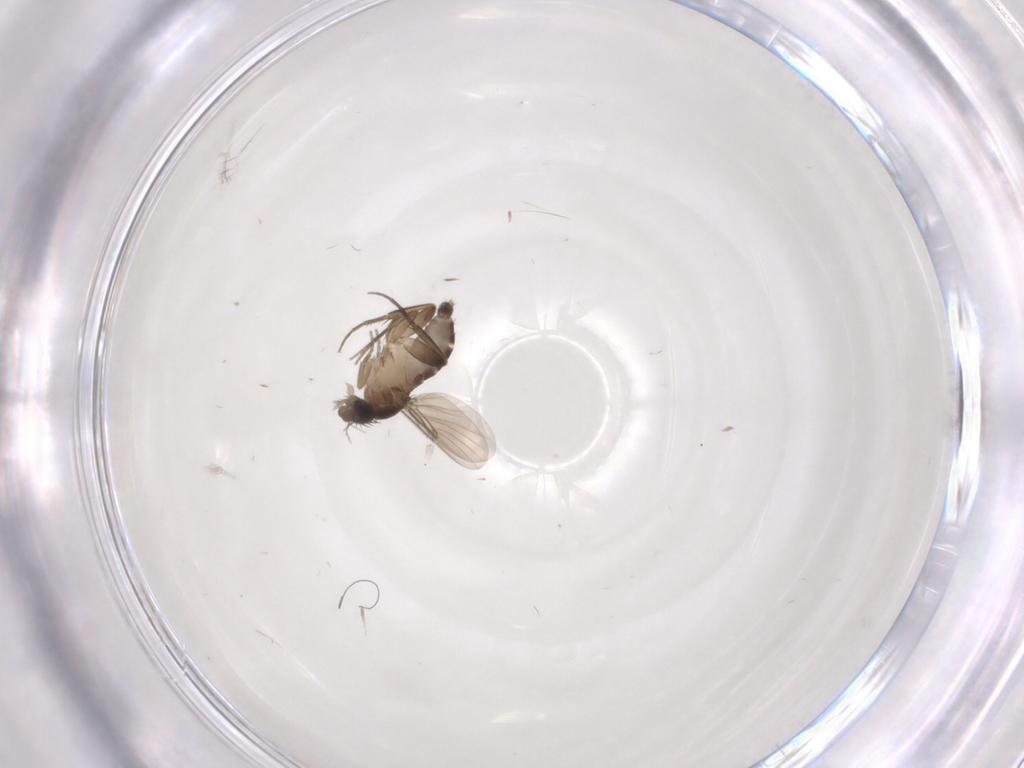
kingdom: Animalia
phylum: Arthropoda
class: Insecta
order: Diptera
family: Phoridae
